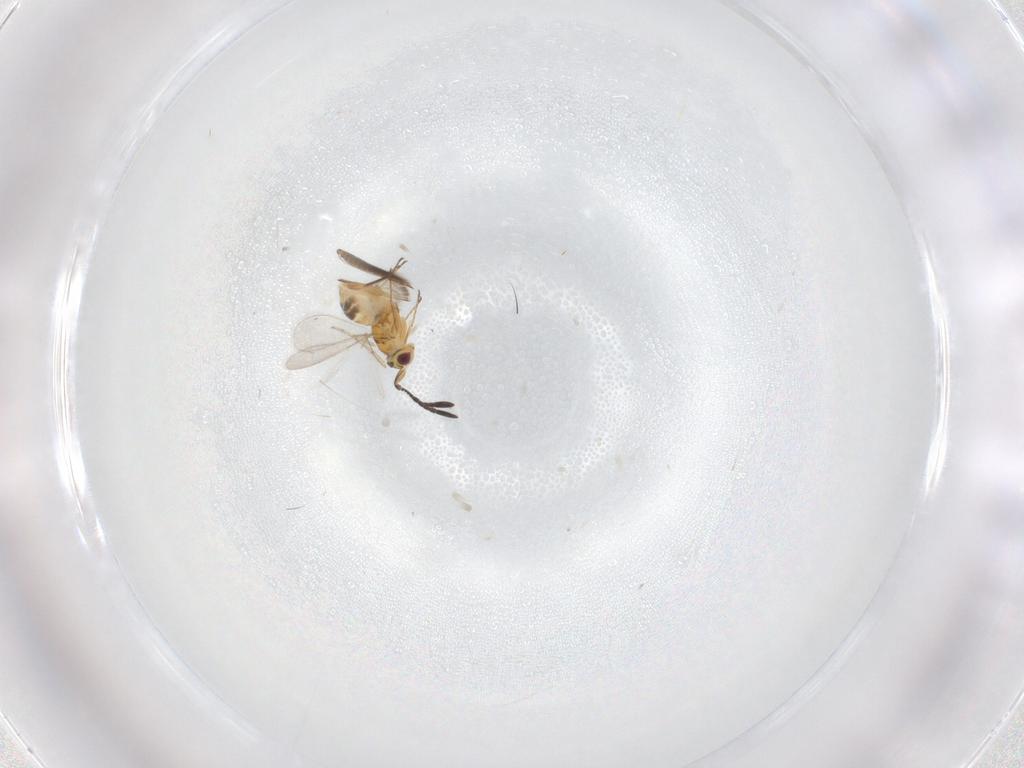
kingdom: Animalia
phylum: Arthropoda
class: Insecta
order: Hymenoptera
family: Mymaridae
